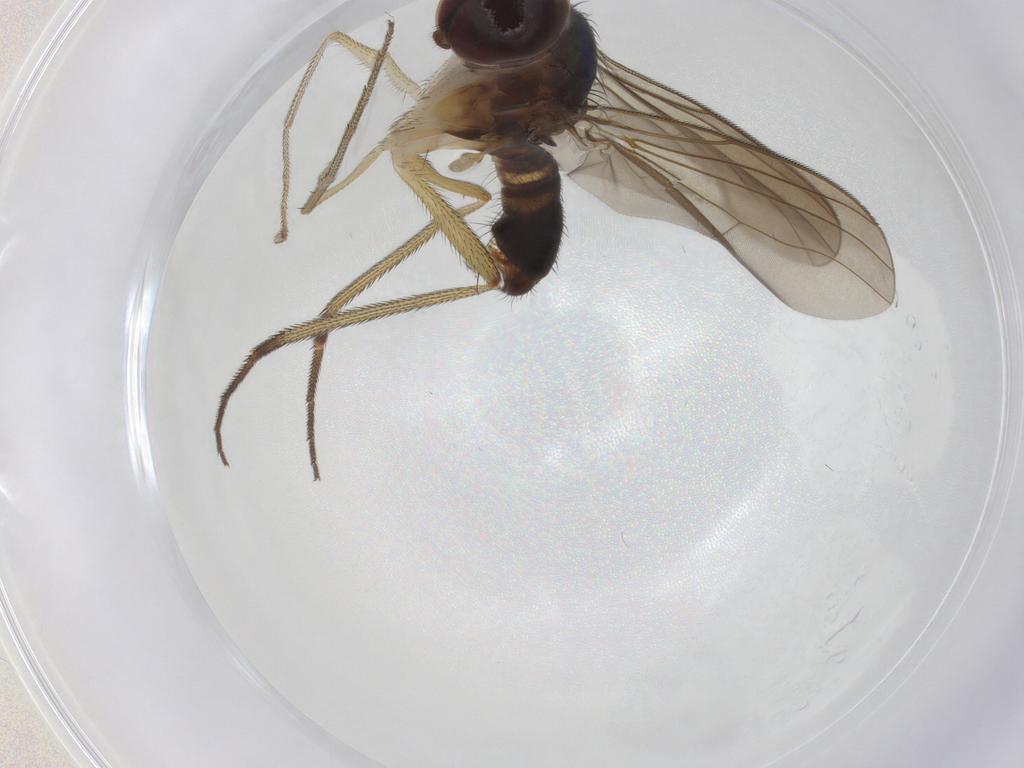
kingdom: Animalia
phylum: Arthropoda
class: Insecta
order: Diptera
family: Dolichopodidae
